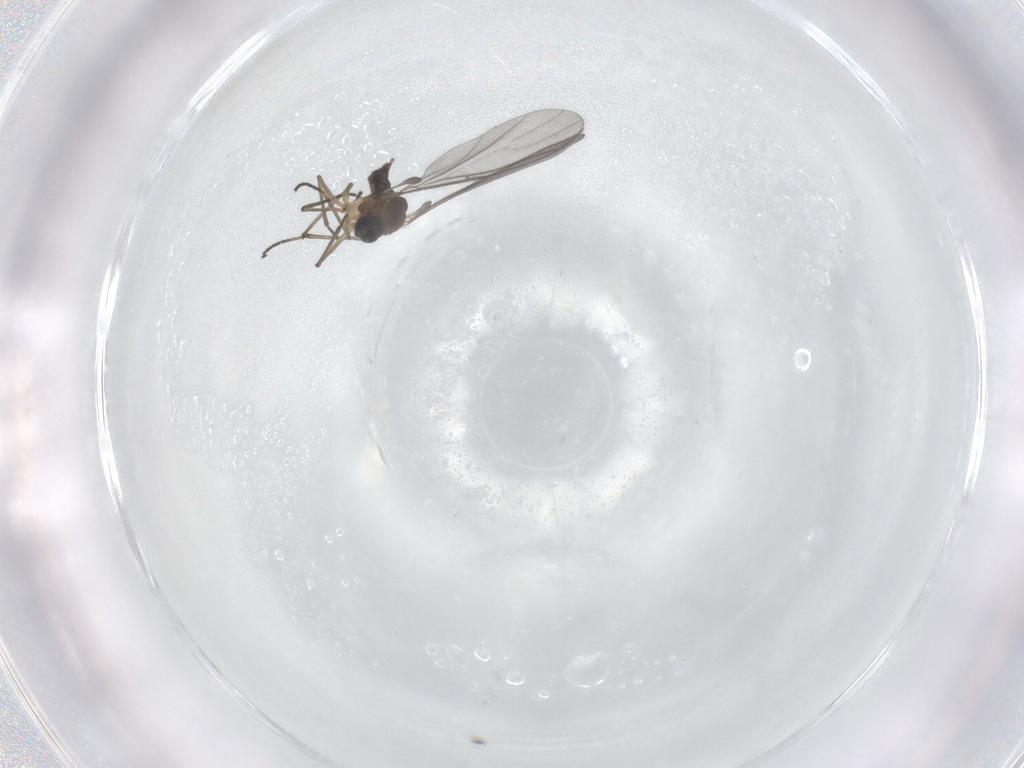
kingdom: Animalia
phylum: Arthropoda
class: Insecta
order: Diptera
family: Sciaridae
